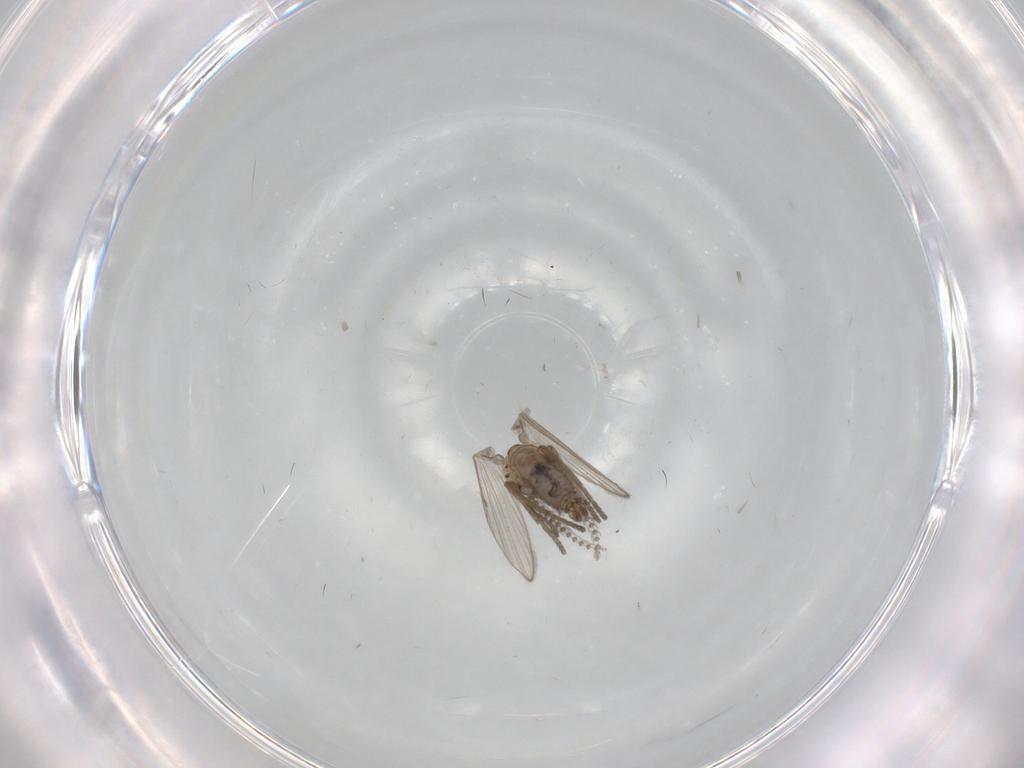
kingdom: Animalia
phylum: Arthropoda
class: Insecta
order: Diptera
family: Psychodidae
